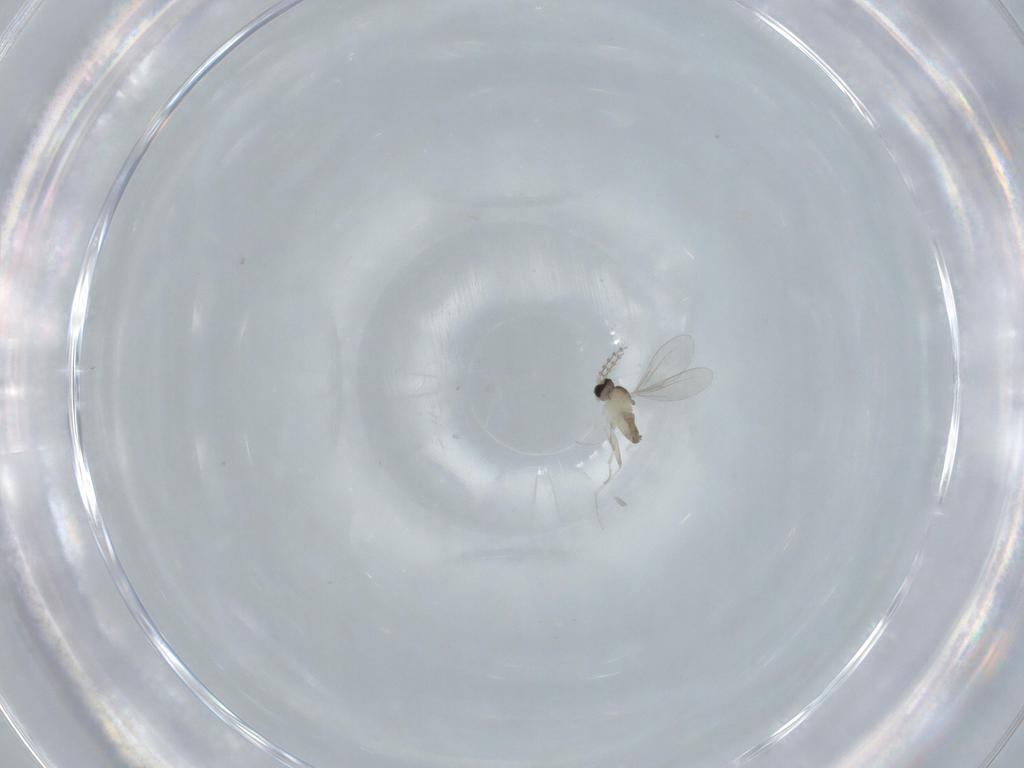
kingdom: Animalia
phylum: Arthropoda
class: Insecta
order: Diptera
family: Cecidomyiidae
